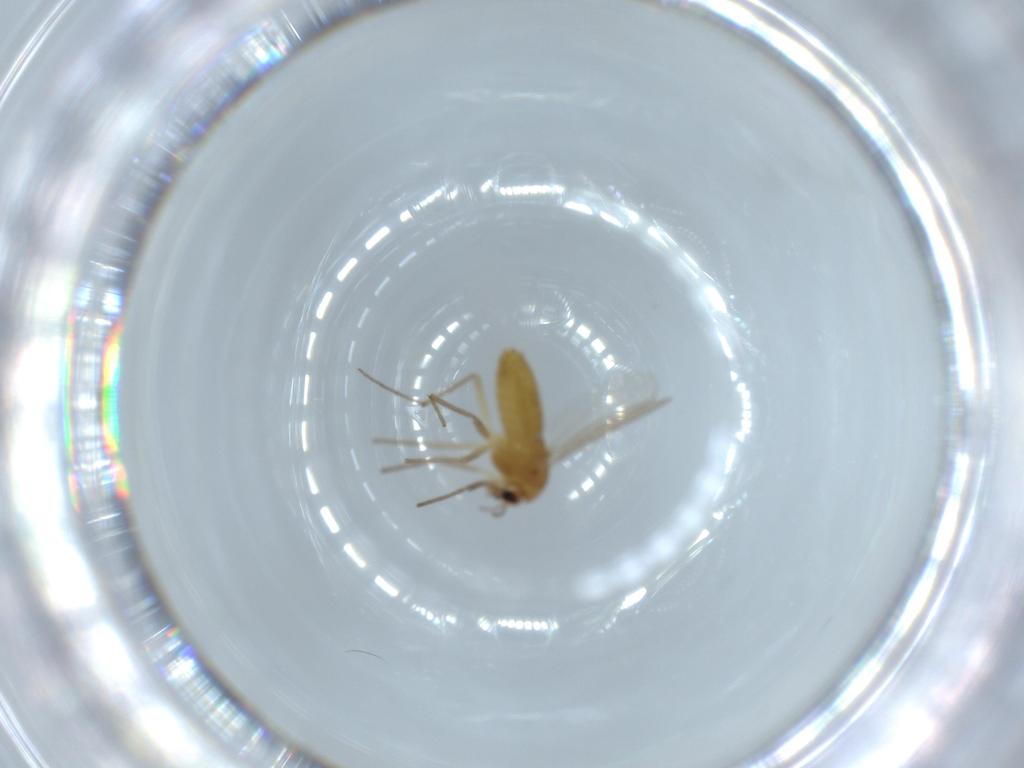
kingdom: Animalia
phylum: Arthropoda
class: Insecta
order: Diptera
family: Chironomidae
